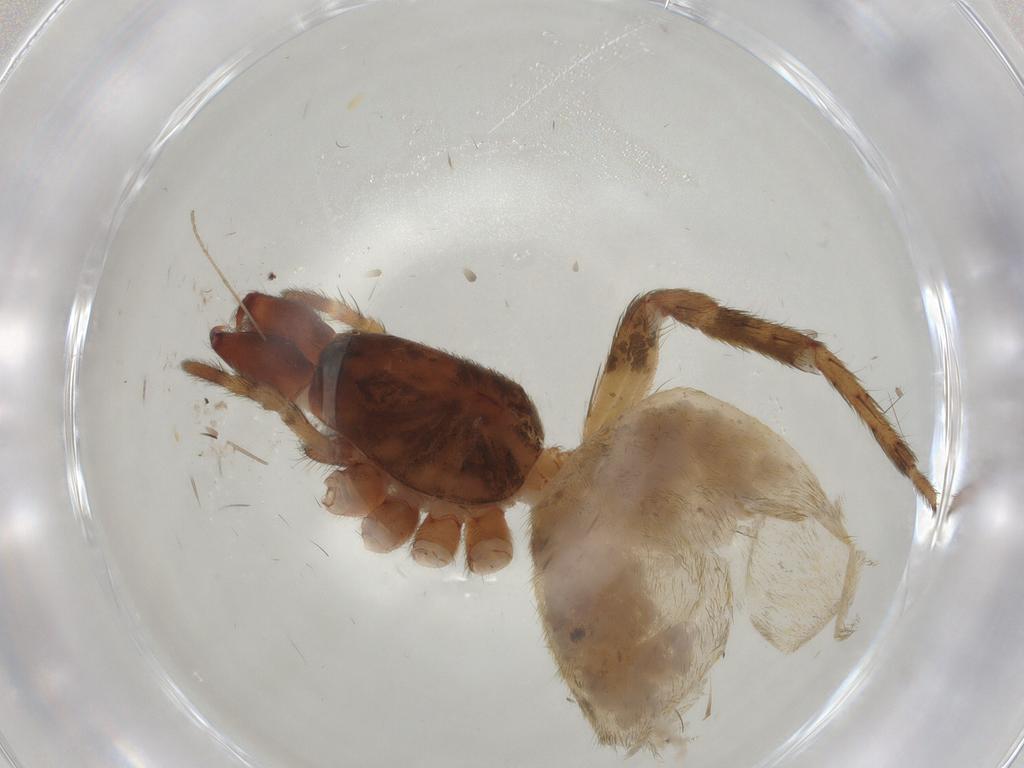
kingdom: Animalia
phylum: Arthropoda
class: Arachnida
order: Araneae
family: Anyphaenidae
